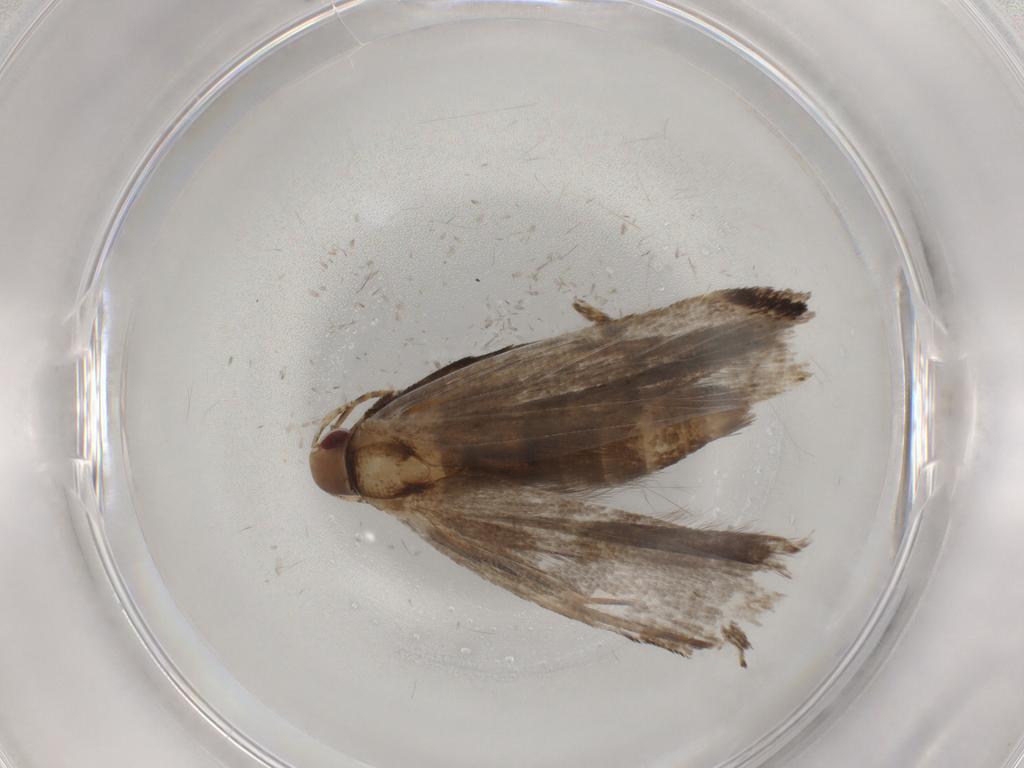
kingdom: Animalia
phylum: Arthropoda
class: Insecta
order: Lepidoptera
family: Gelechiidae
